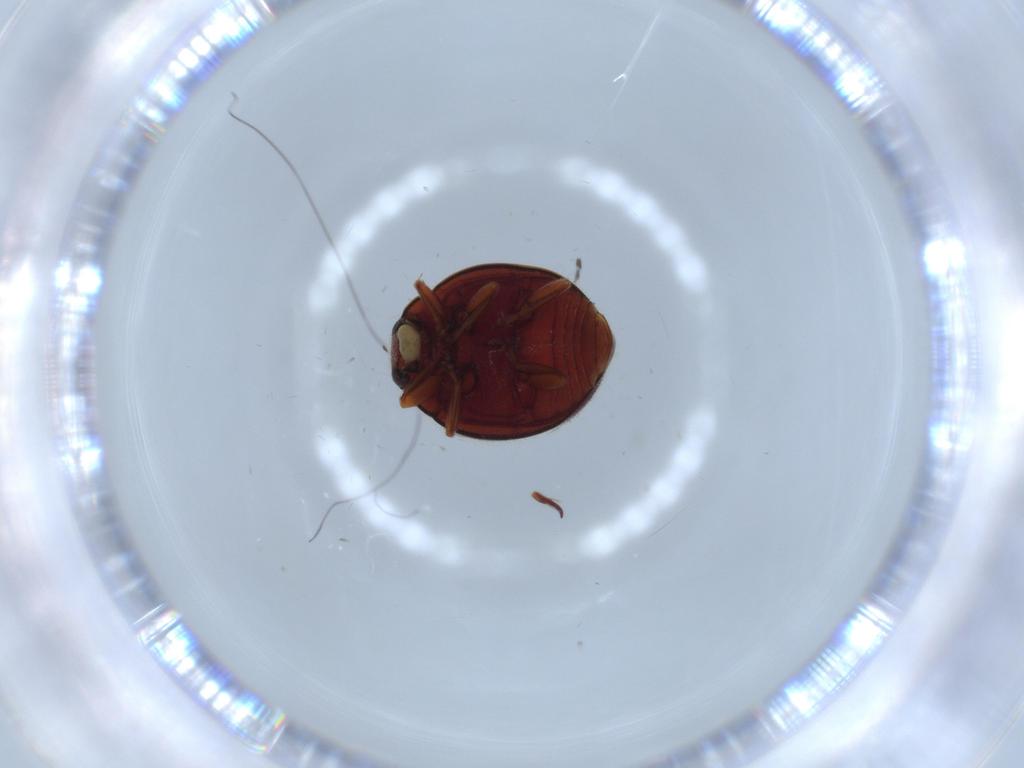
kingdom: Animalia
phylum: Arthropoda
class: Insecta
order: Coleoptera
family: Coccinellidae
